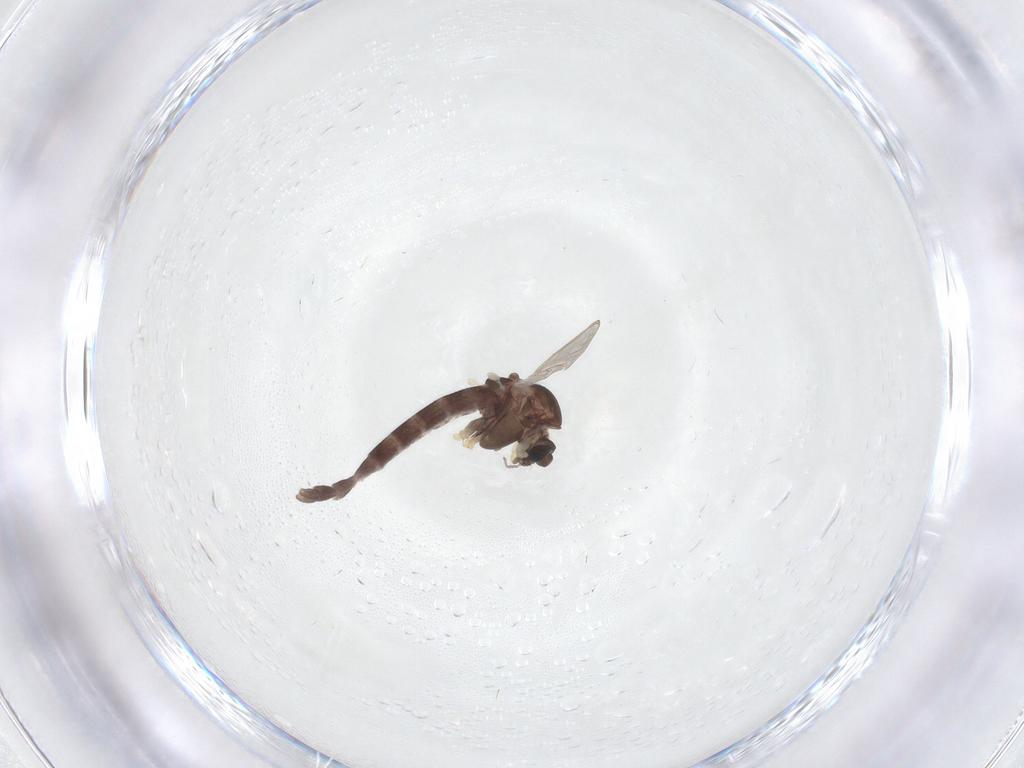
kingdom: Animalia
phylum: Arthropoda
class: Insecta
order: Diptera
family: Chironomidae
